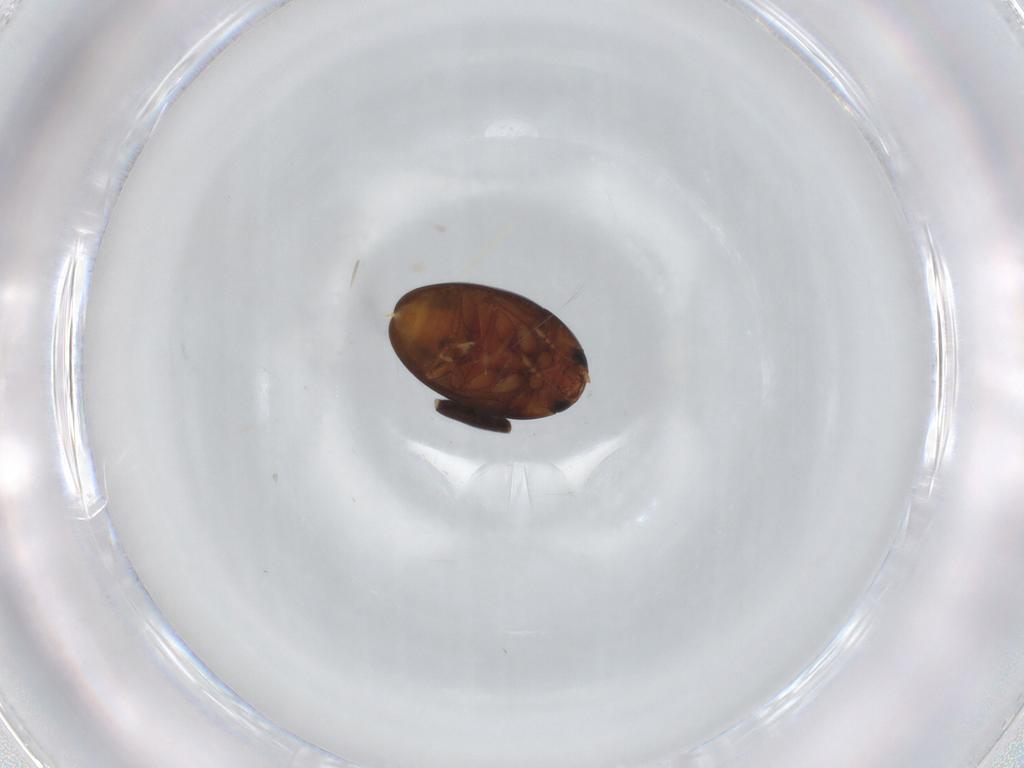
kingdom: Animalia
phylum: Arthropoda
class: Insecta
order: Coleoptera
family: Phalacridae
